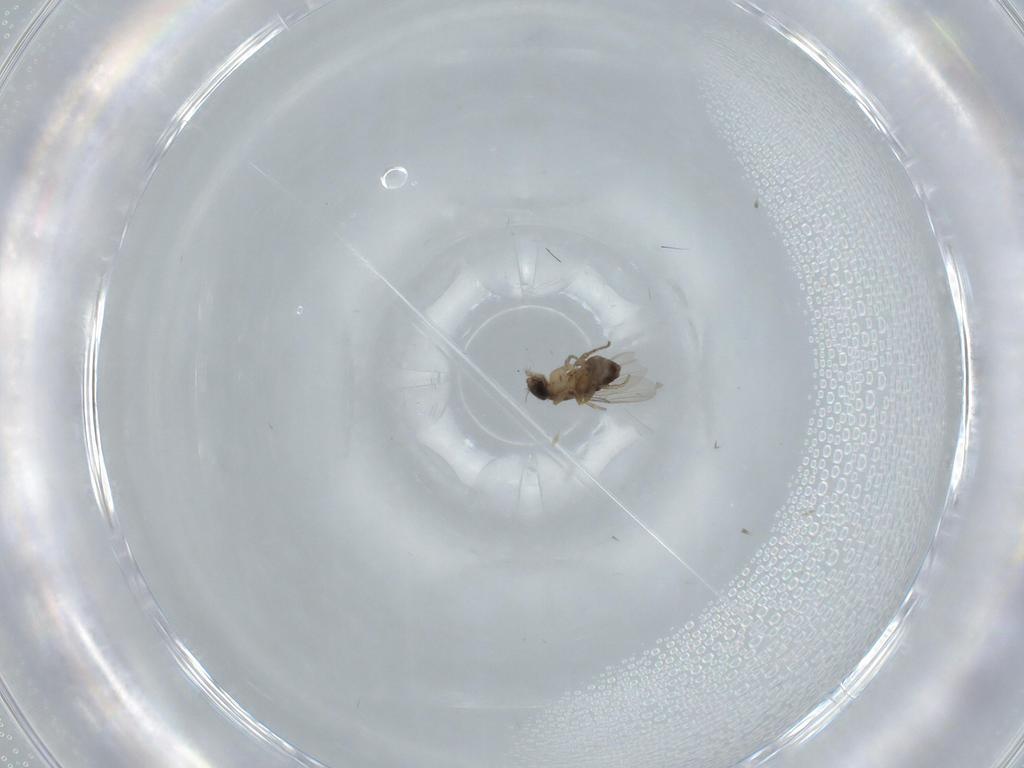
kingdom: Animalia
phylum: Arthropoda
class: Insecta
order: Diptera
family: Phoridae
